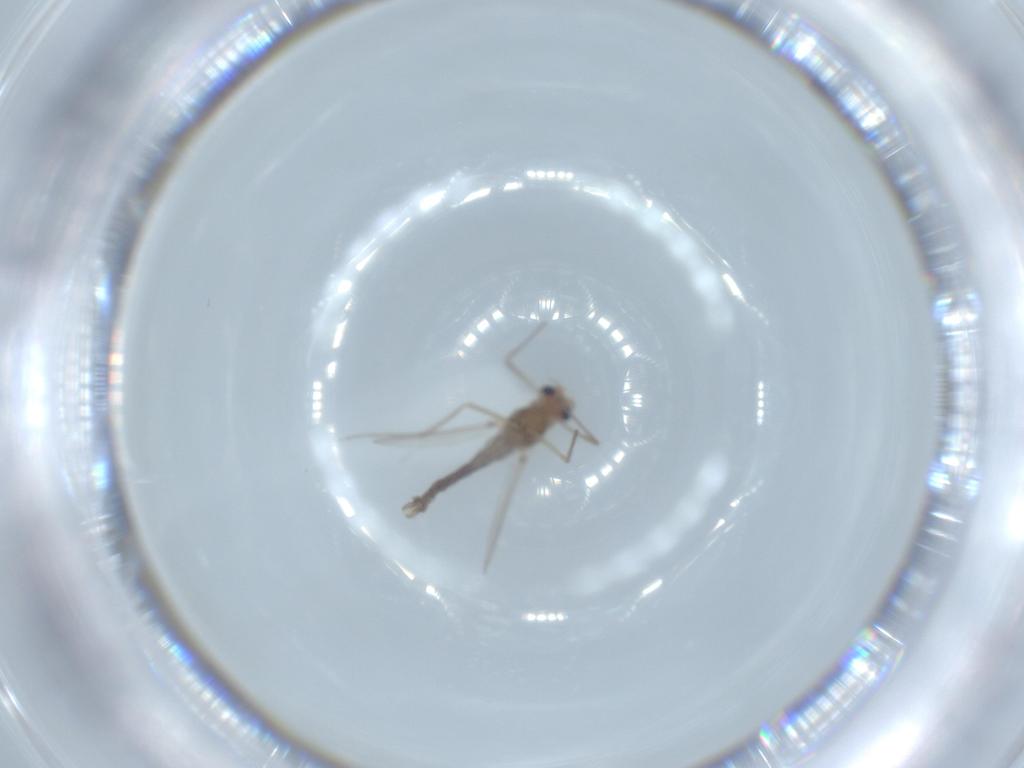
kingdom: Animalia
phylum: Arthropoda
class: Insecta
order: Diptera
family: Chironomidae
